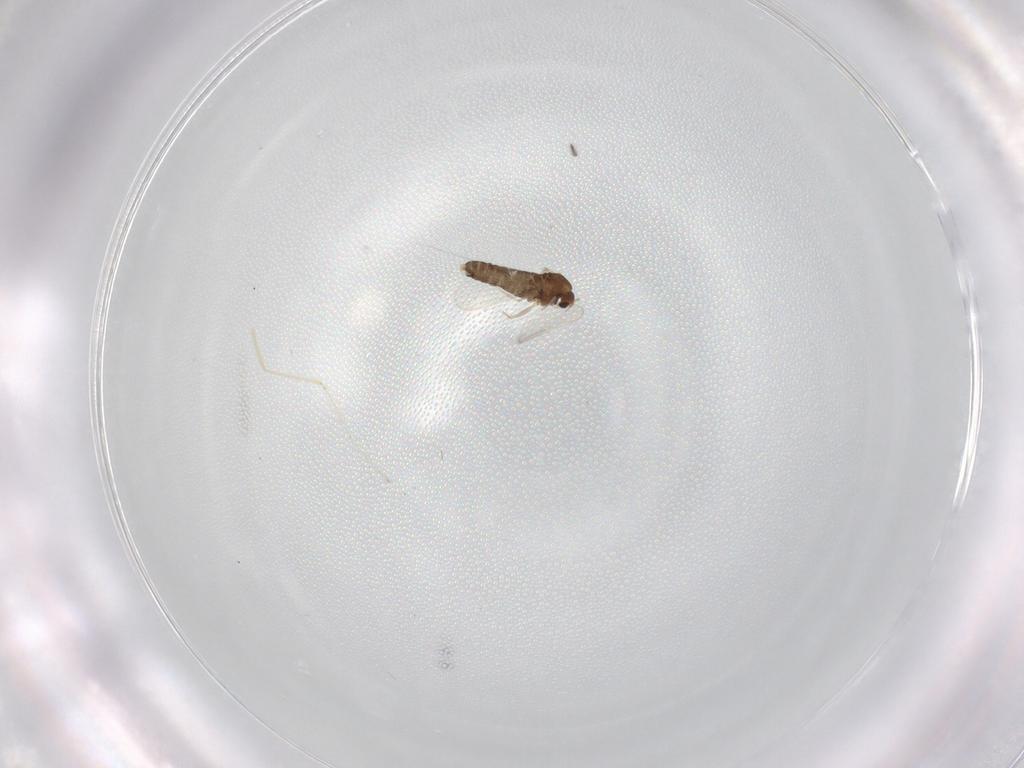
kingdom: Animalia
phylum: Arthropoda
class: Insecta
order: Diptera
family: Chironomidae
